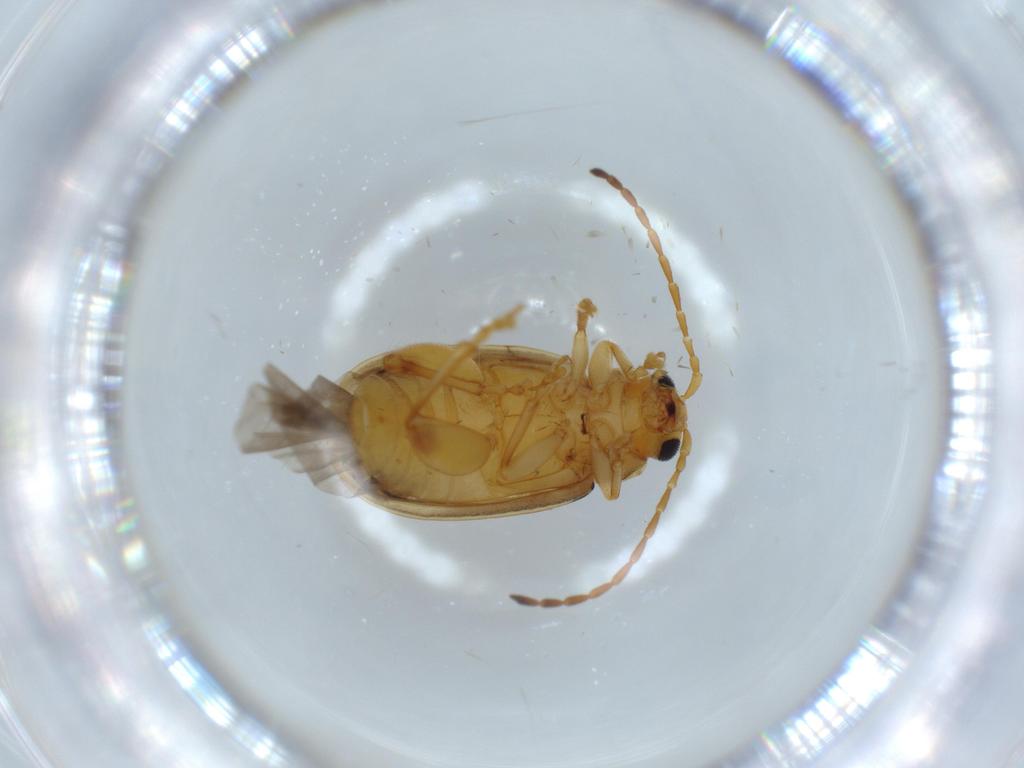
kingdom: Animalia
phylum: Arthropoda
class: Insecta
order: Coleoptera
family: Chrysomelidae
